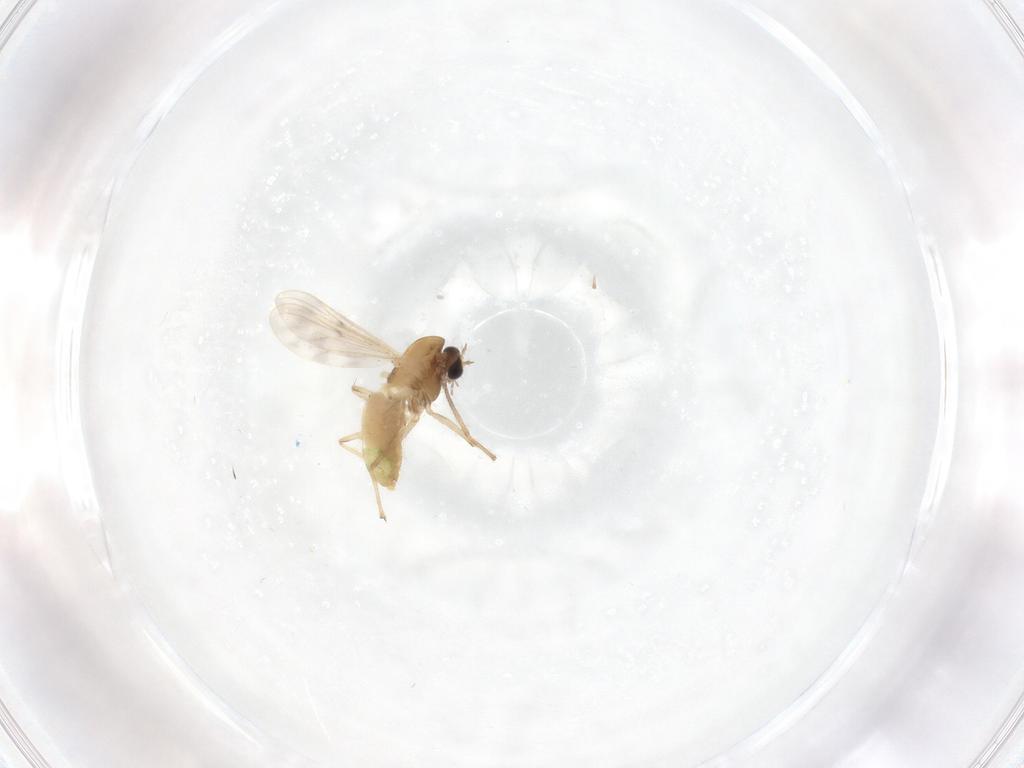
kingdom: Animalia
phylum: Arthropoda
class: Insecta
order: Diptera
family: Chironomidae
